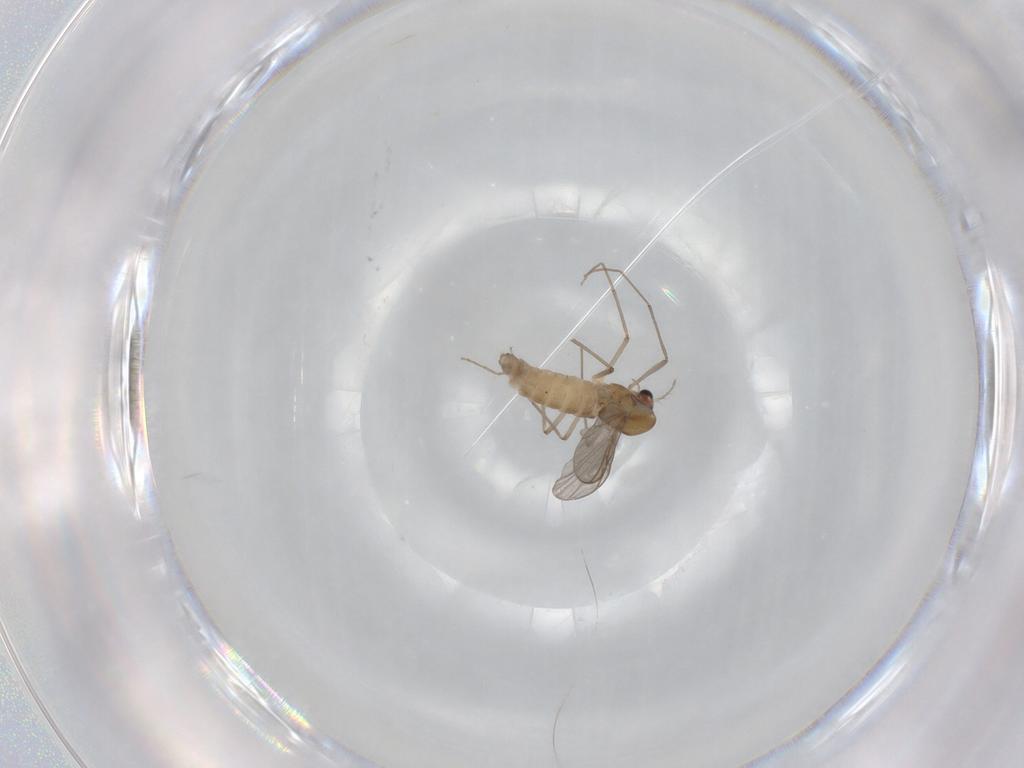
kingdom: Animalia
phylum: Arthropoda
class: Insecta
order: Diptera
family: Chironomidae
